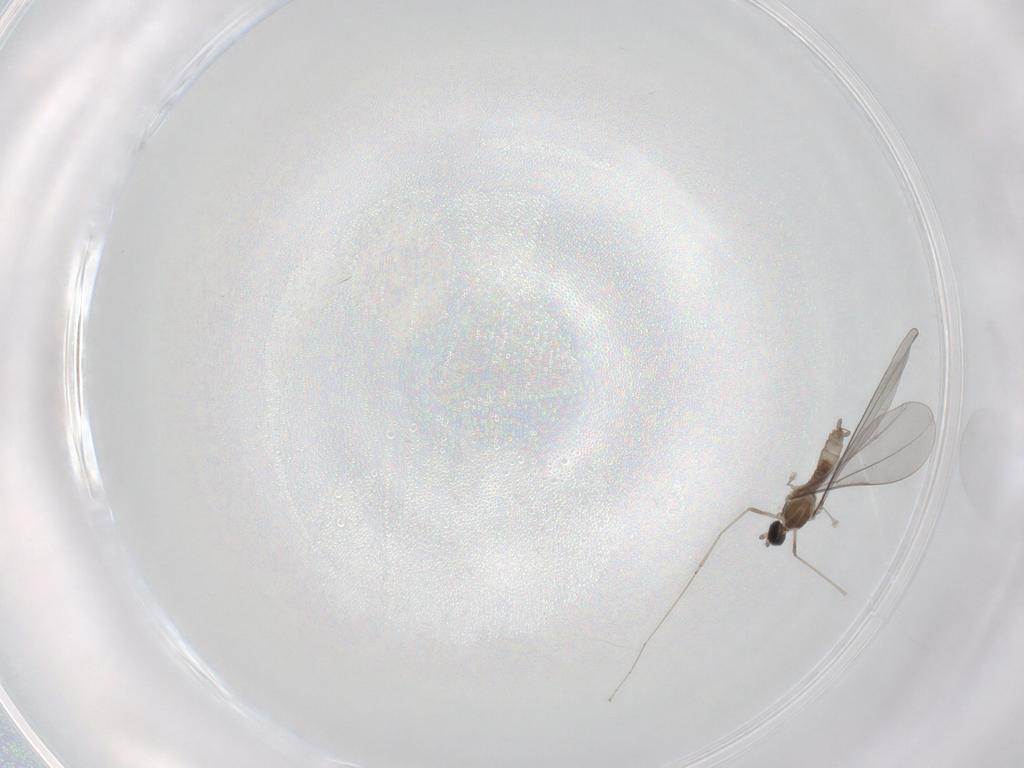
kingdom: Animalia
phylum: Arthropoda
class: Insecta
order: Diptera
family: Cecidomyiidae
